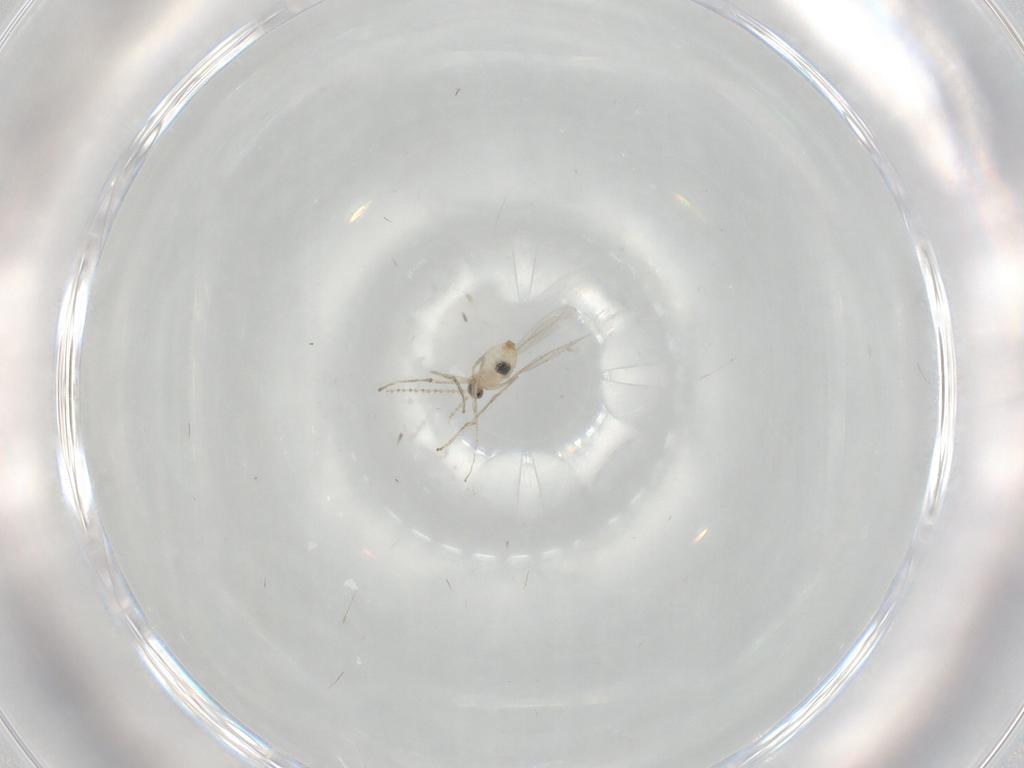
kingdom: Animalia
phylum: Arthropoda
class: Insecta
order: Diptera
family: Cecidomyiidae
